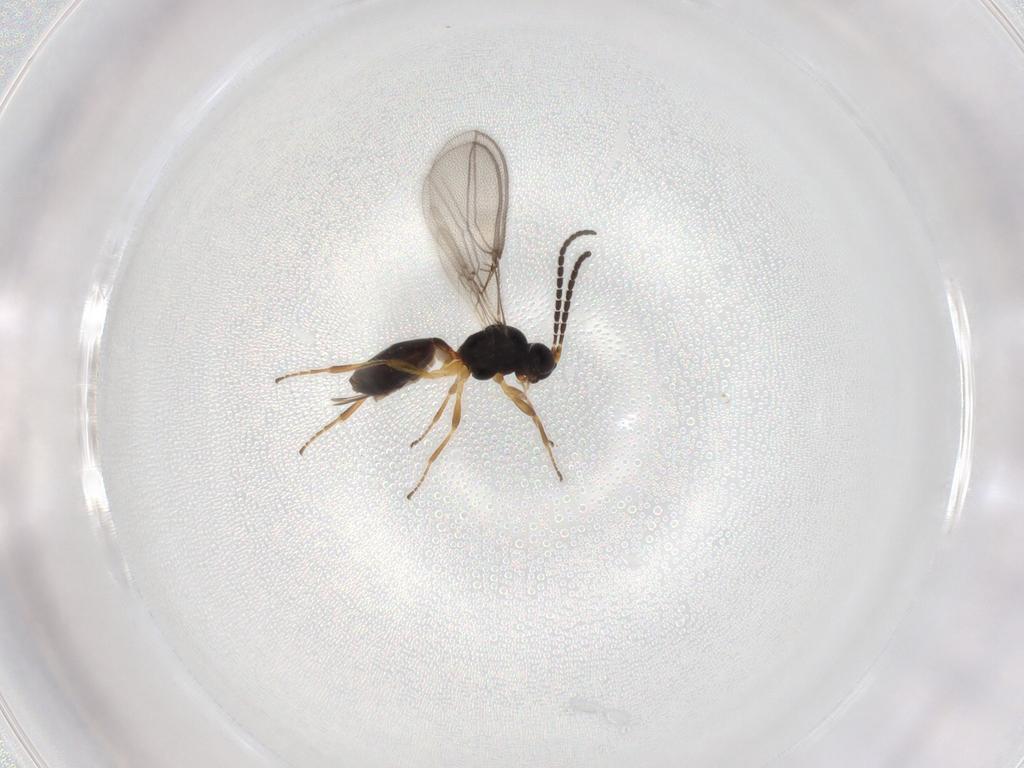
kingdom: Animalia
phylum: Arthropoda
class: Insecta
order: Hymenoptera
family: Braconidae
